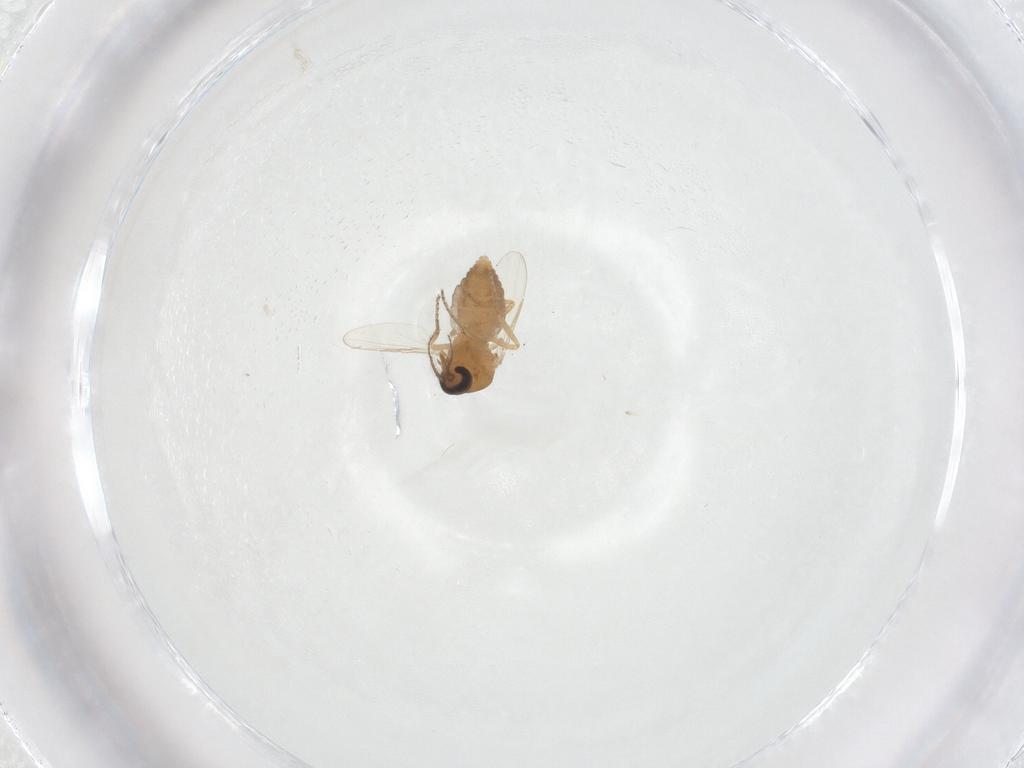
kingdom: Animalia
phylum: Arthropoda
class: Insecta
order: Diptera
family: Ceratopogonidae
